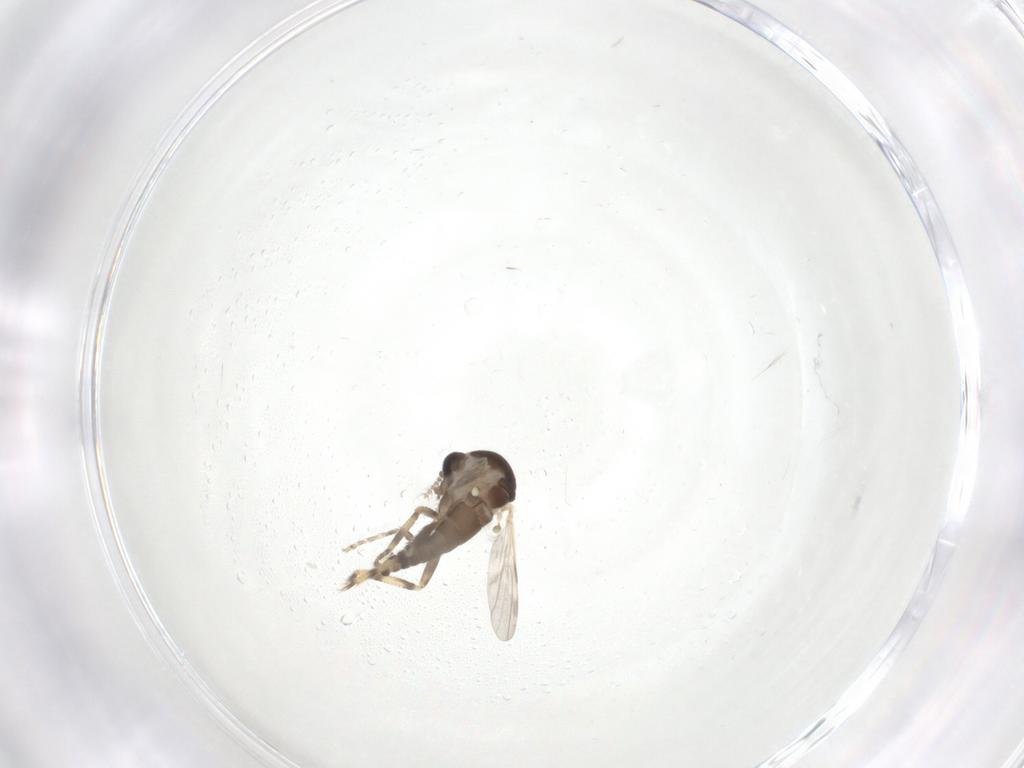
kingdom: Animalia
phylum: Arthropoda
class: Insecta
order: Diptera
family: Ceratopogonidae
